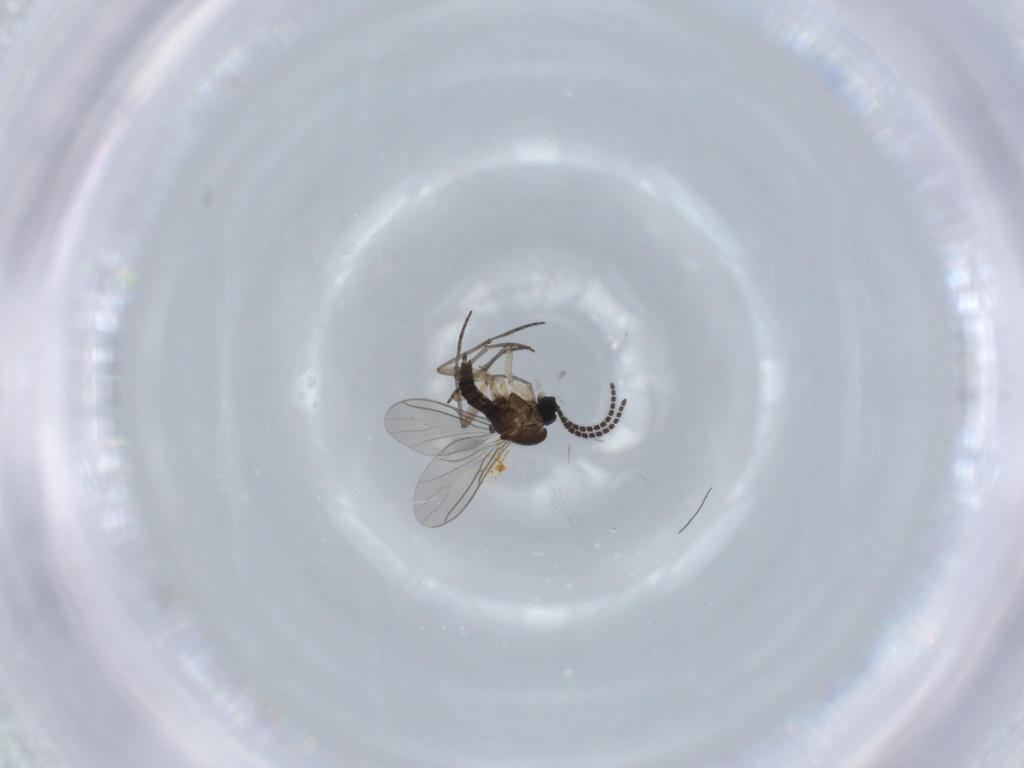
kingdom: Animalia
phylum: Arthropoda
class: Insecta
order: Diptera
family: Sciaridae
